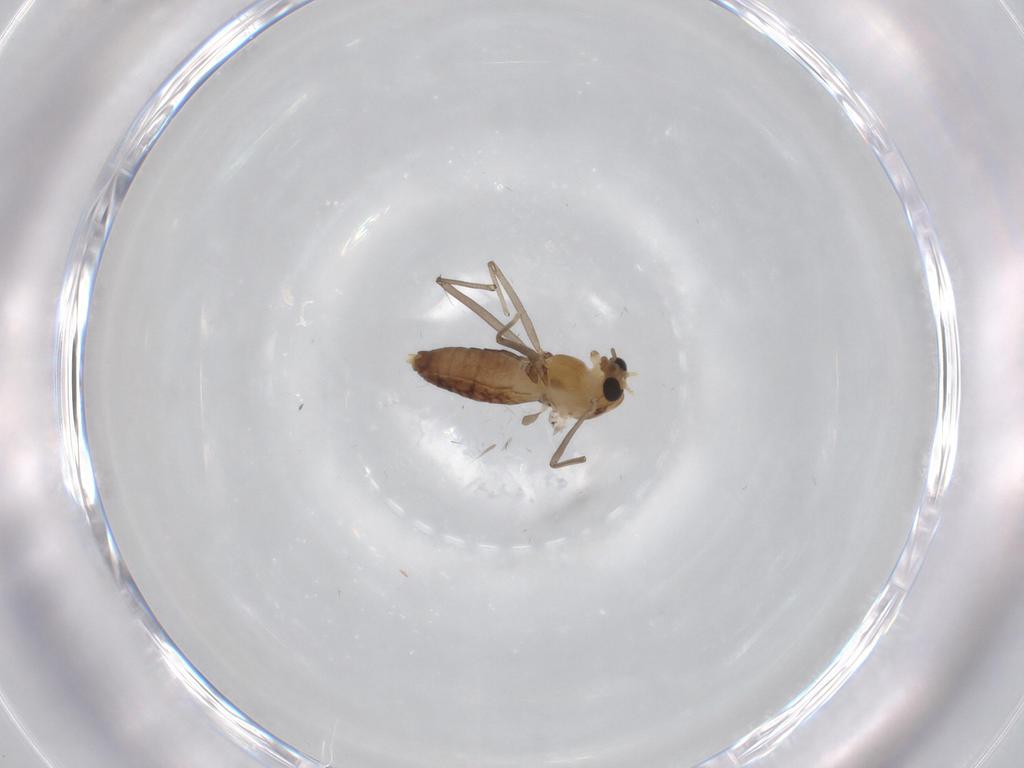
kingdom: Animalia
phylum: Arthropoda
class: Insecta
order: Diptera
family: Chironomidae
